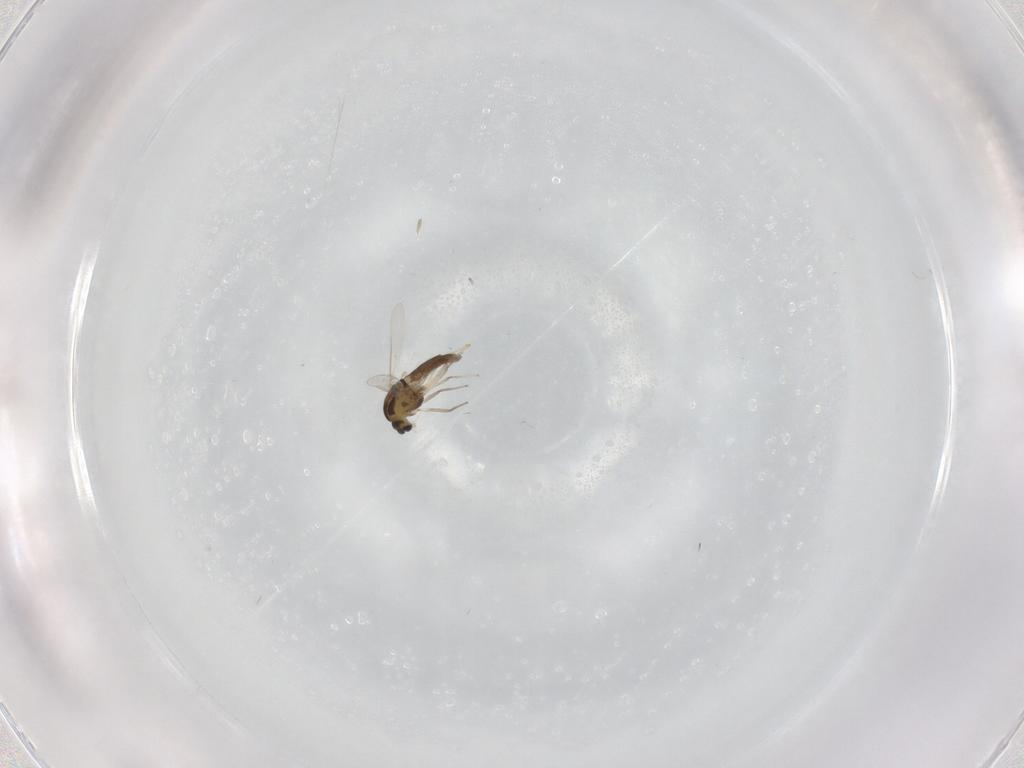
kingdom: Animalia
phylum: Arthropoda
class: Insecta
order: Diptera
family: Chironomidae
